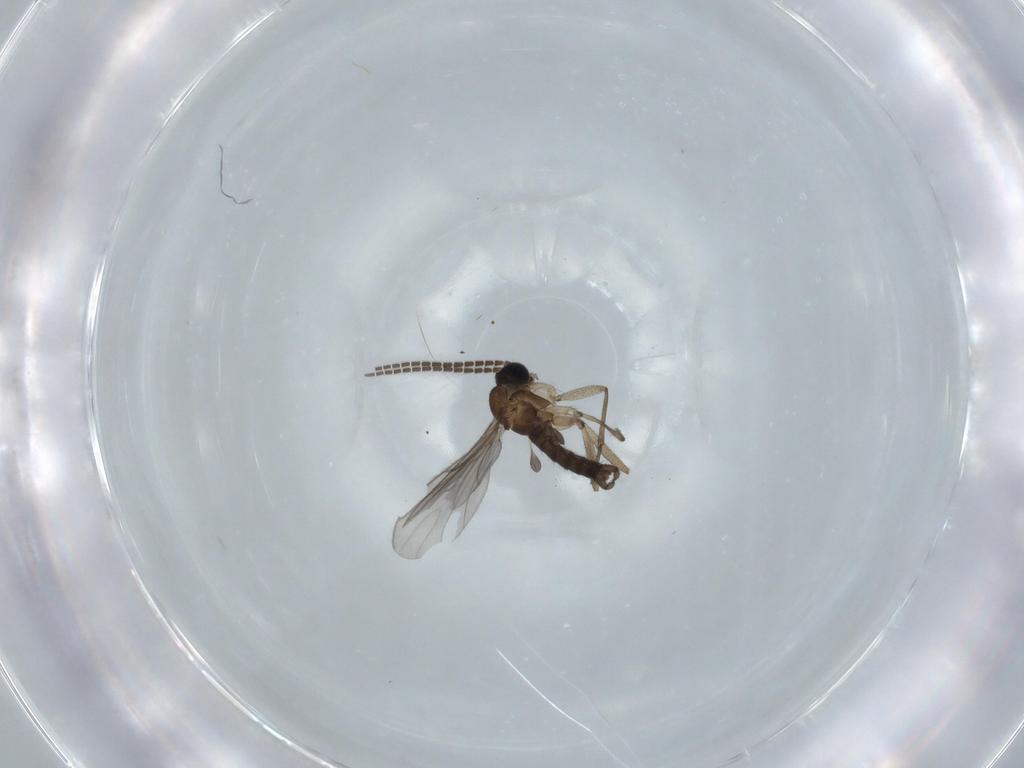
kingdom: Animalia
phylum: Arthropoda
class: Insecta
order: Diptera
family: Sciaridae
